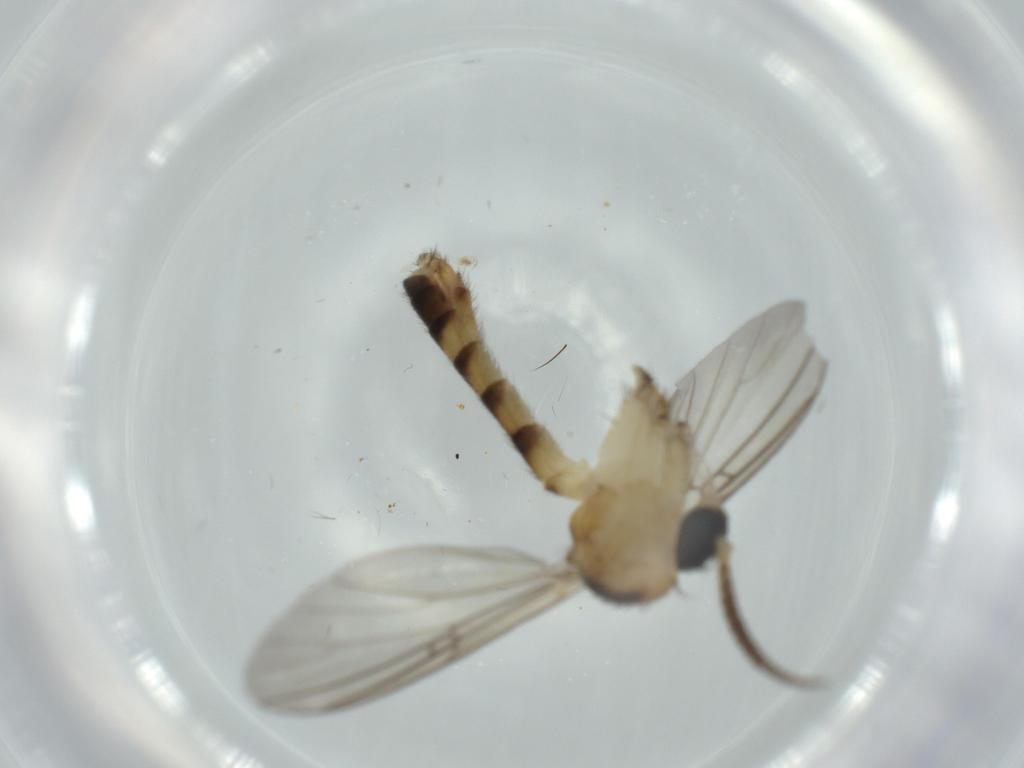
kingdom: Animalia
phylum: Arthropoda
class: Insecta
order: Diptera
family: Mycetophilidae
